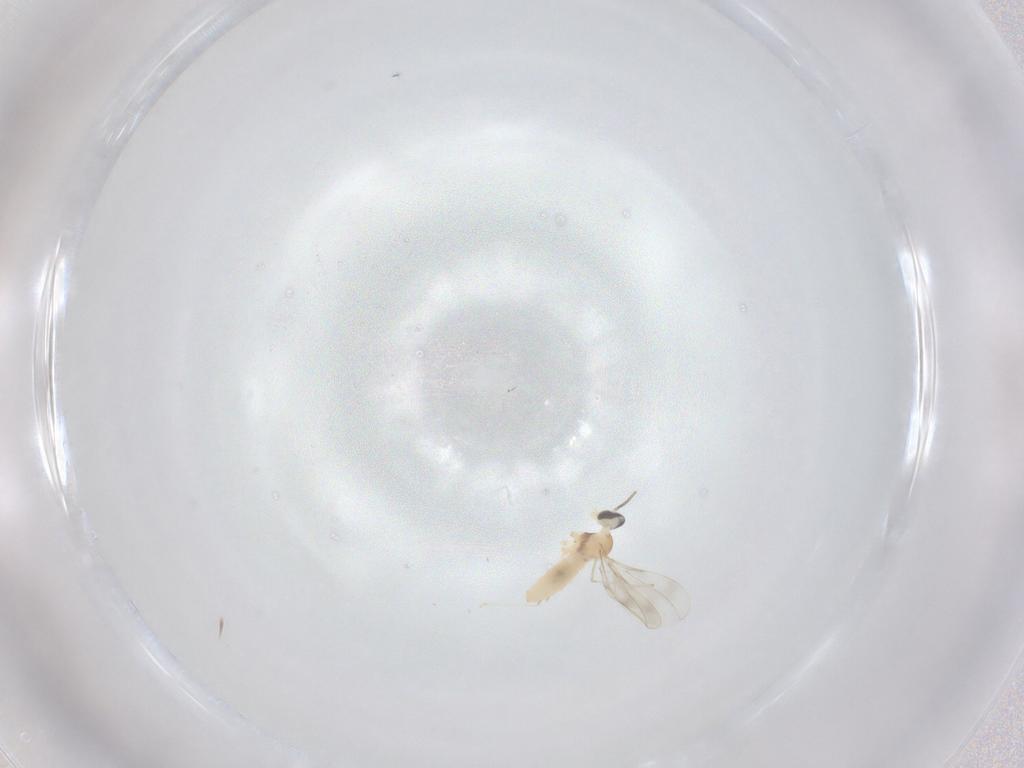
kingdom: Animalia
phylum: Arthropoda
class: Insecta
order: Diptera
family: Cecidomyiidae
